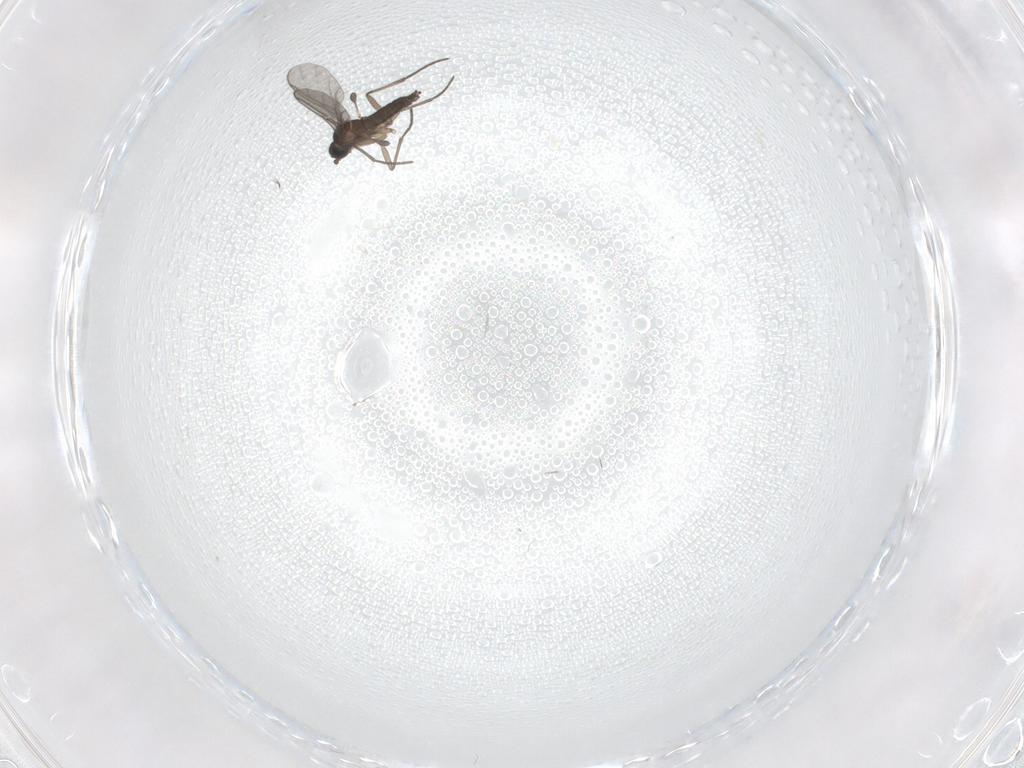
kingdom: Animalia
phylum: Arthropoda
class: Insecta
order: Diptera
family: Sciaridae
